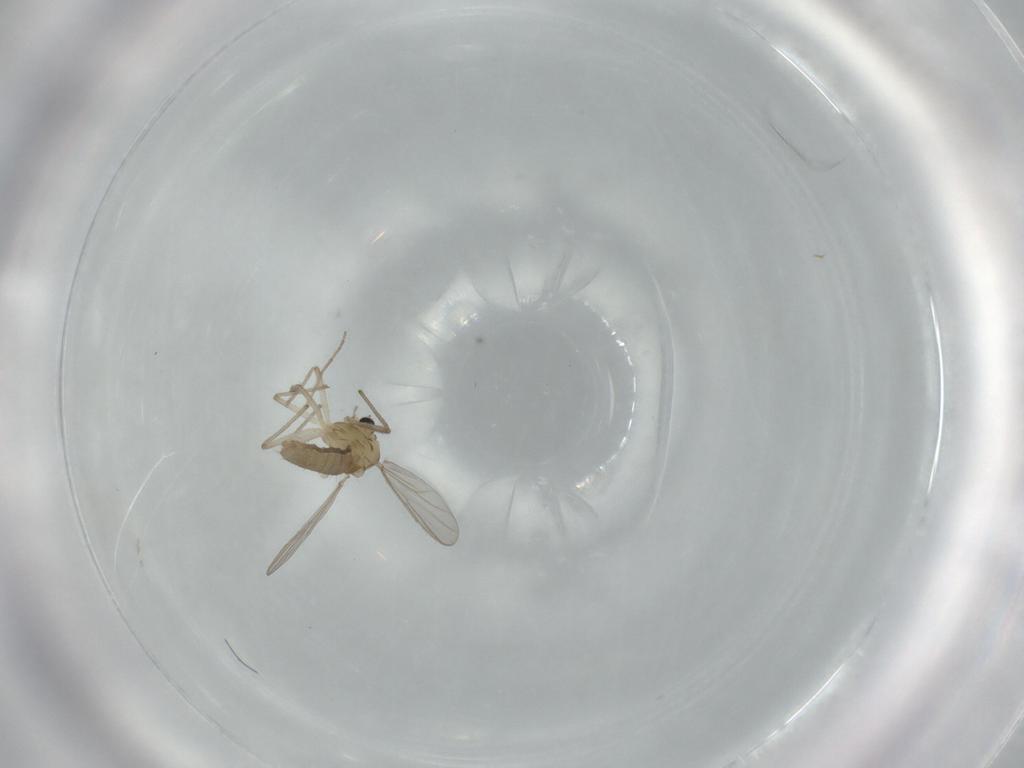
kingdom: Animalia
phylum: Arthropoda
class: Insecta
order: Diptera
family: Chironomidae
